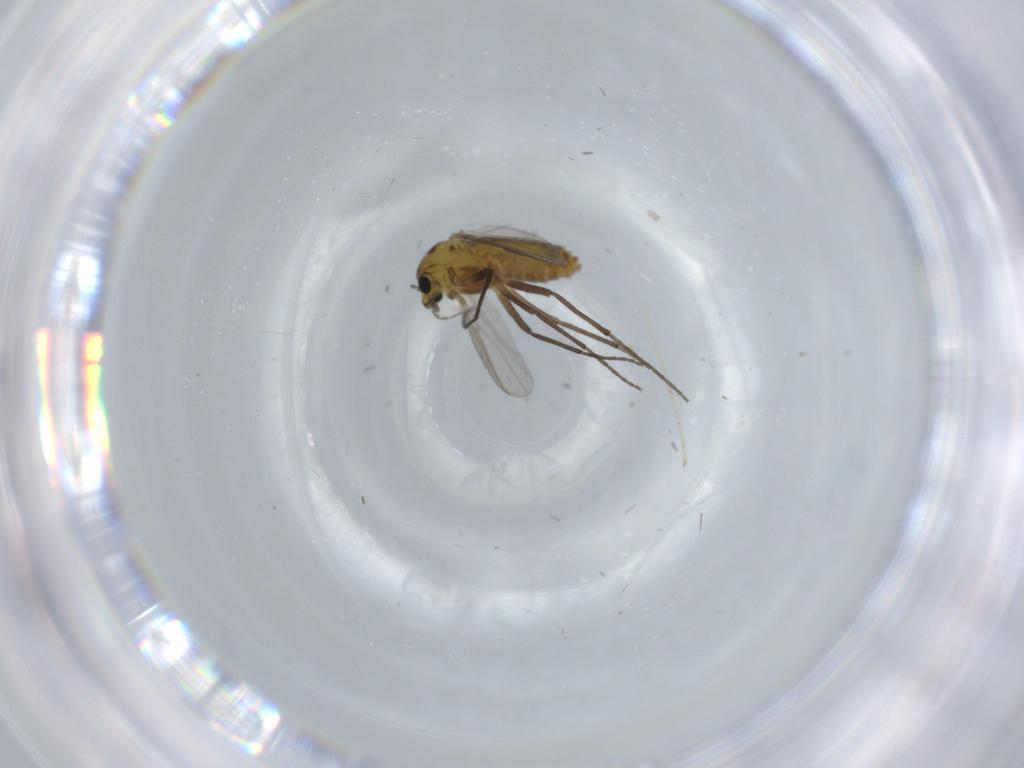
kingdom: Animalia
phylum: Arthropoda
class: Insecta
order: Diptera
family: Chironomidae
